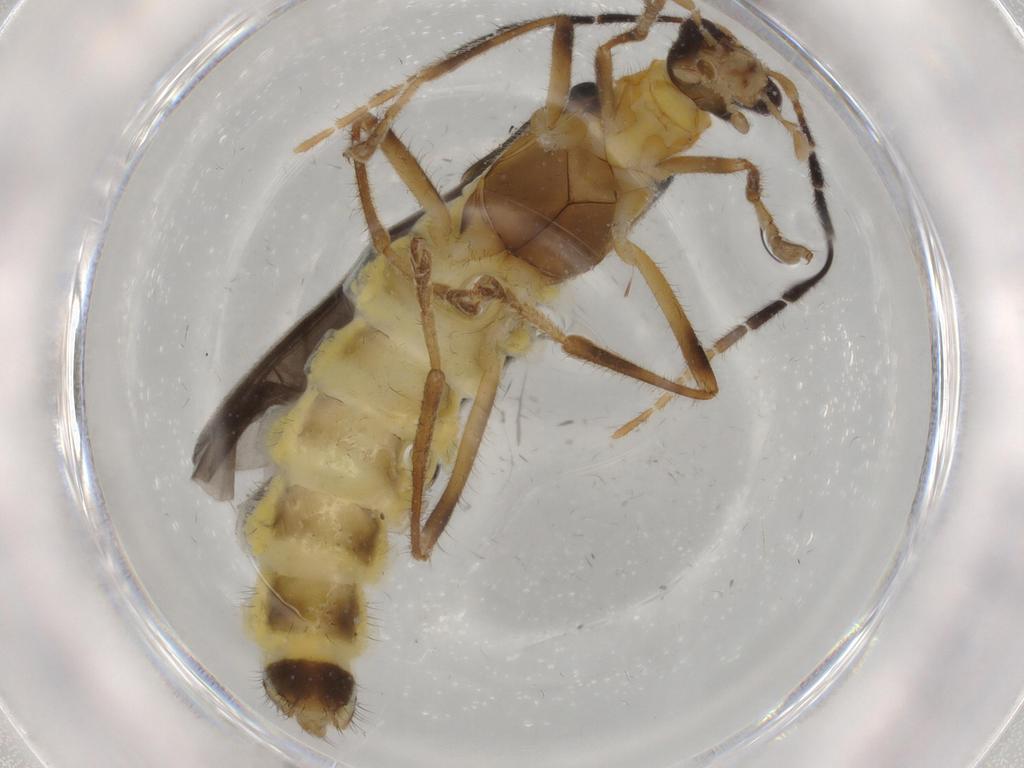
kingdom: Animalia
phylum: Arthropoda
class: Insecta
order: Coleoptera
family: Cantharidae
